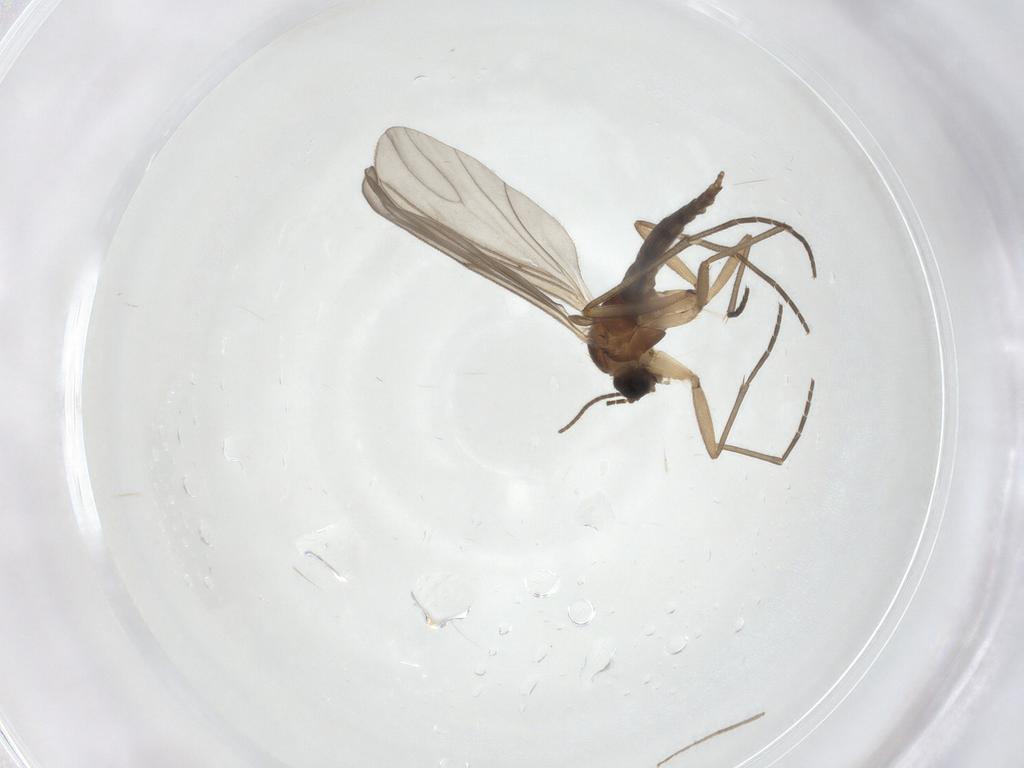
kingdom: Animalia
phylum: Arthropoda
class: Insecta
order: Diptera
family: Sciaridae
